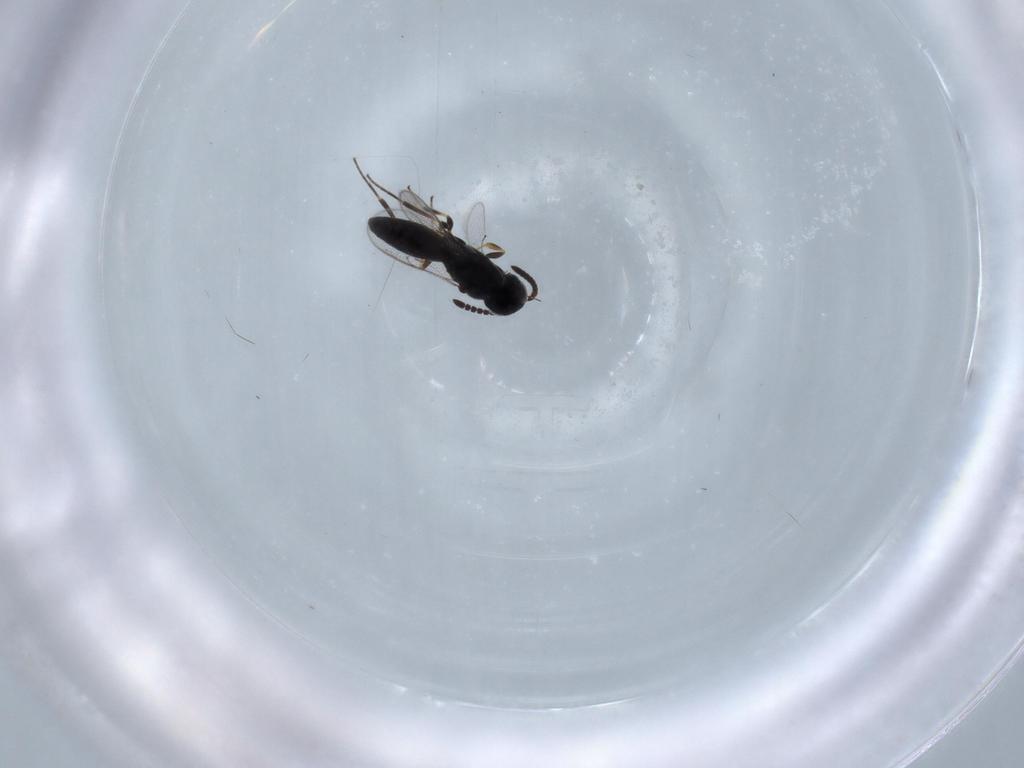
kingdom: Animalia
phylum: Arthropoda
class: Insecta
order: Hymenoptera
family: Scelionidae
